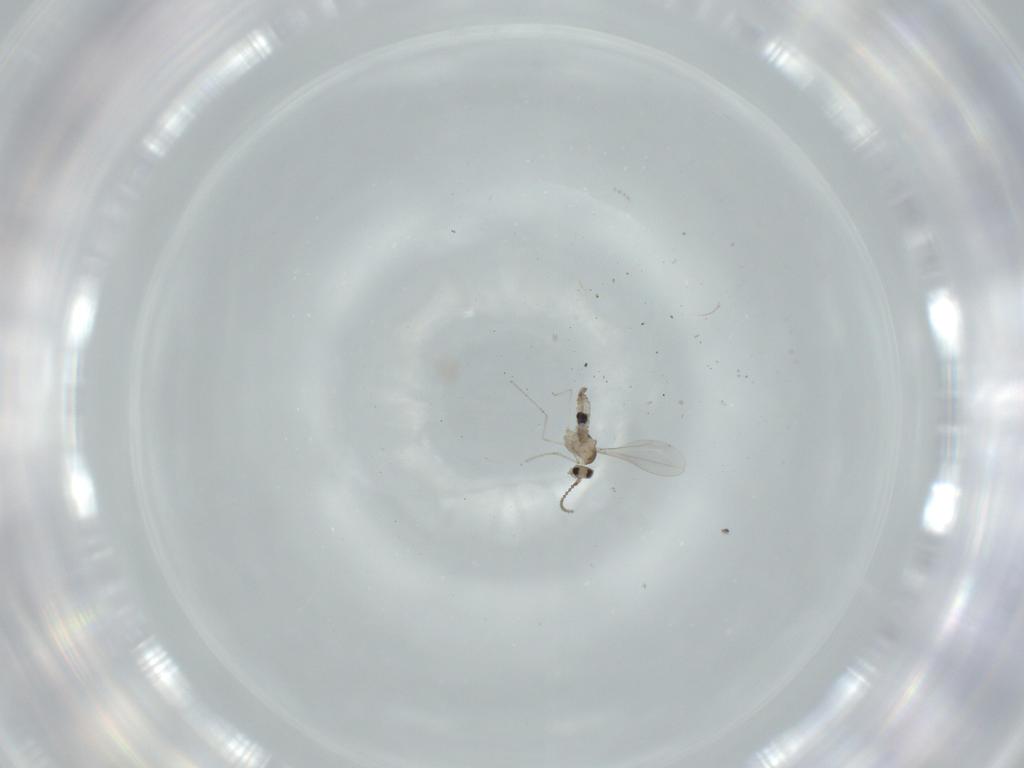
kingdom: Animalia
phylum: Arthropoda
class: Insecta
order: Diptera
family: Cecidomyiidae
